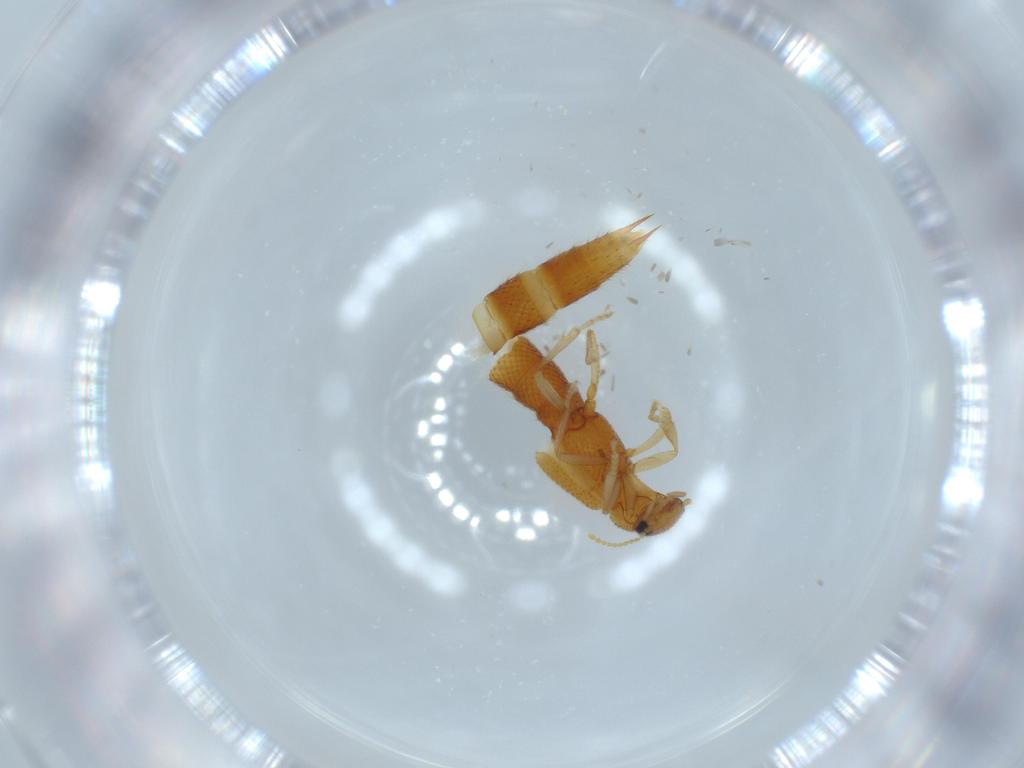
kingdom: Animalia
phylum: Arthropoda
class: Insecta
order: Coleoptera
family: Staphylinidae
